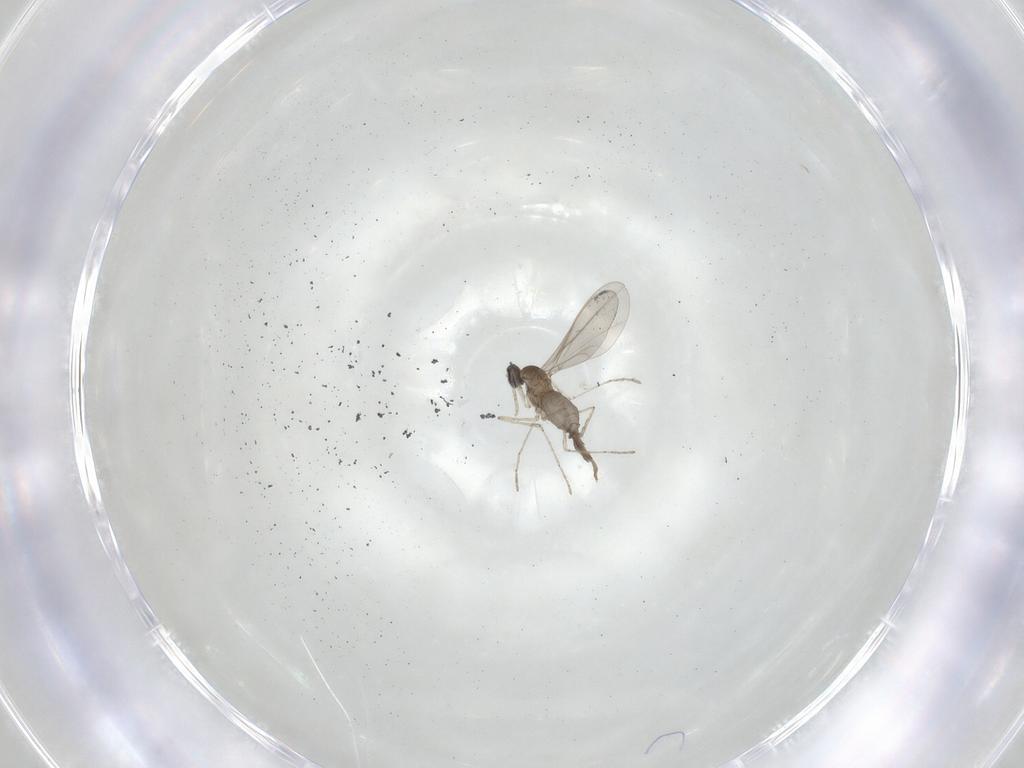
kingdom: Animalia
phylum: Arthropoda
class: Insecta
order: Diptera
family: Cecidomyiidae
